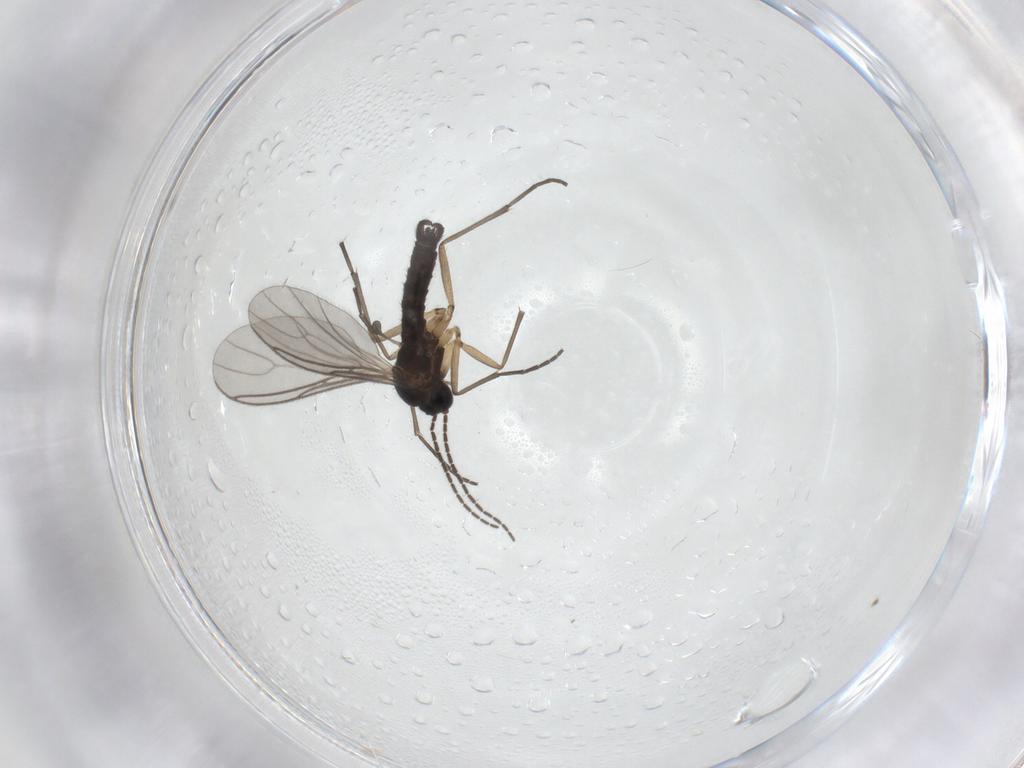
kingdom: Animalia
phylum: Arthropoda
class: Insecta
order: Diptera
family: Sciaridae
